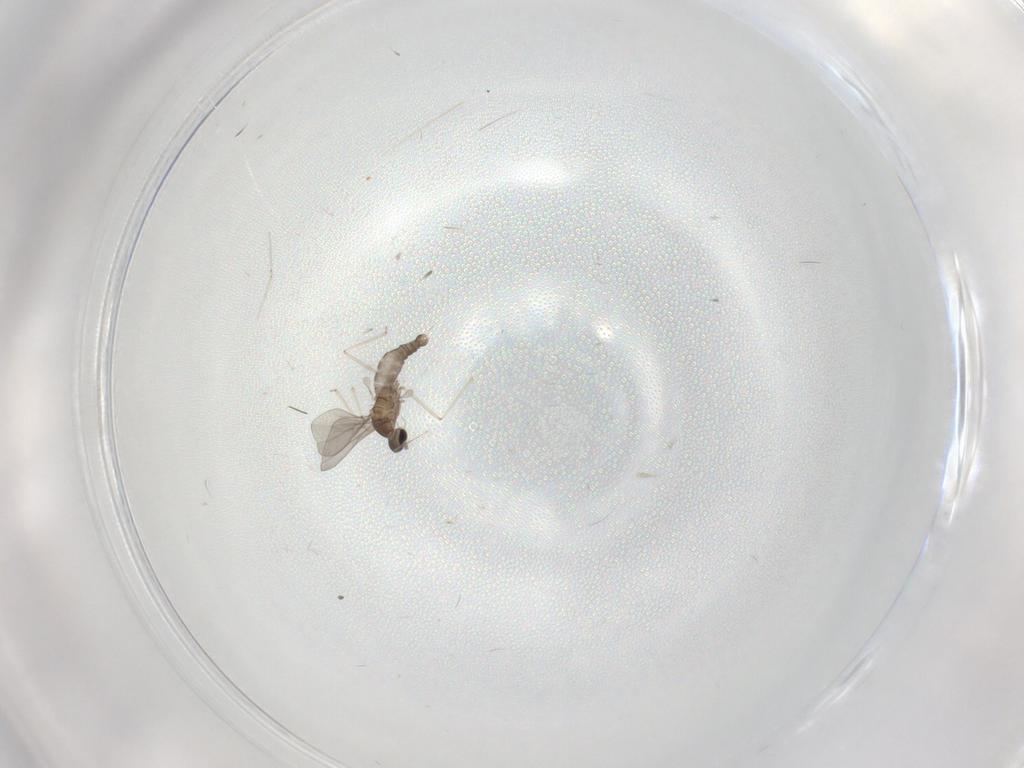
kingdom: Animalia
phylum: Arthropoda
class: Insecta
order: Diptera
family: Cecidomyiidae
